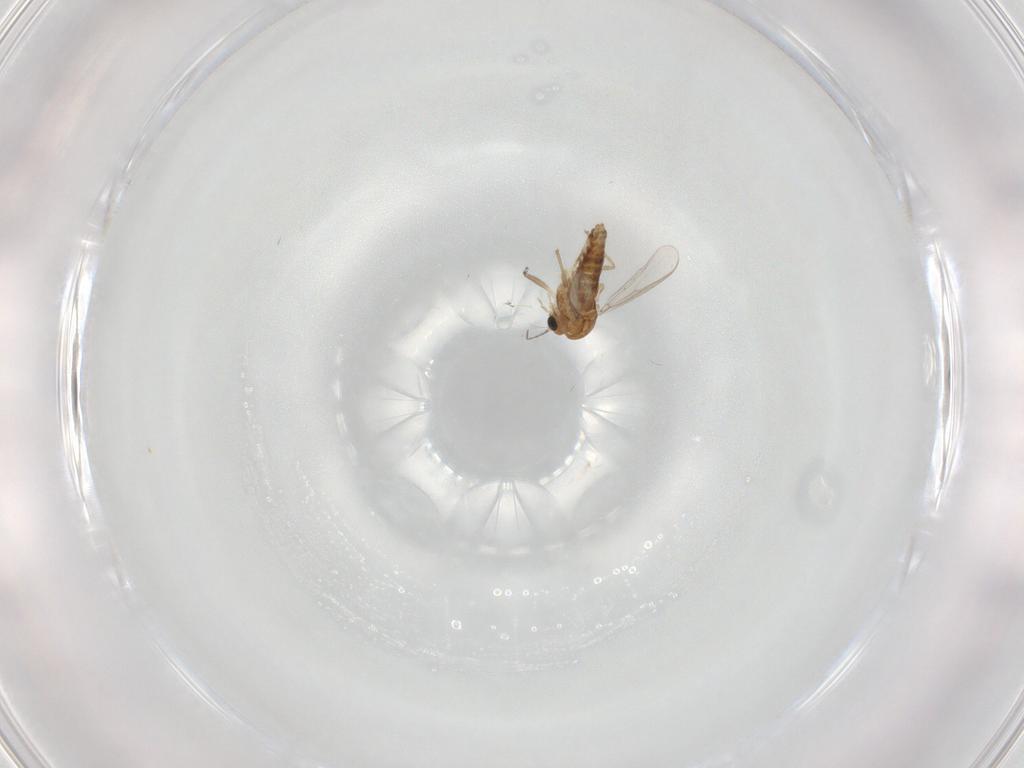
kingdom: Animalia
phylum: Arthropoda
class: Insecta
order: Diptera
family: Chironomidae
